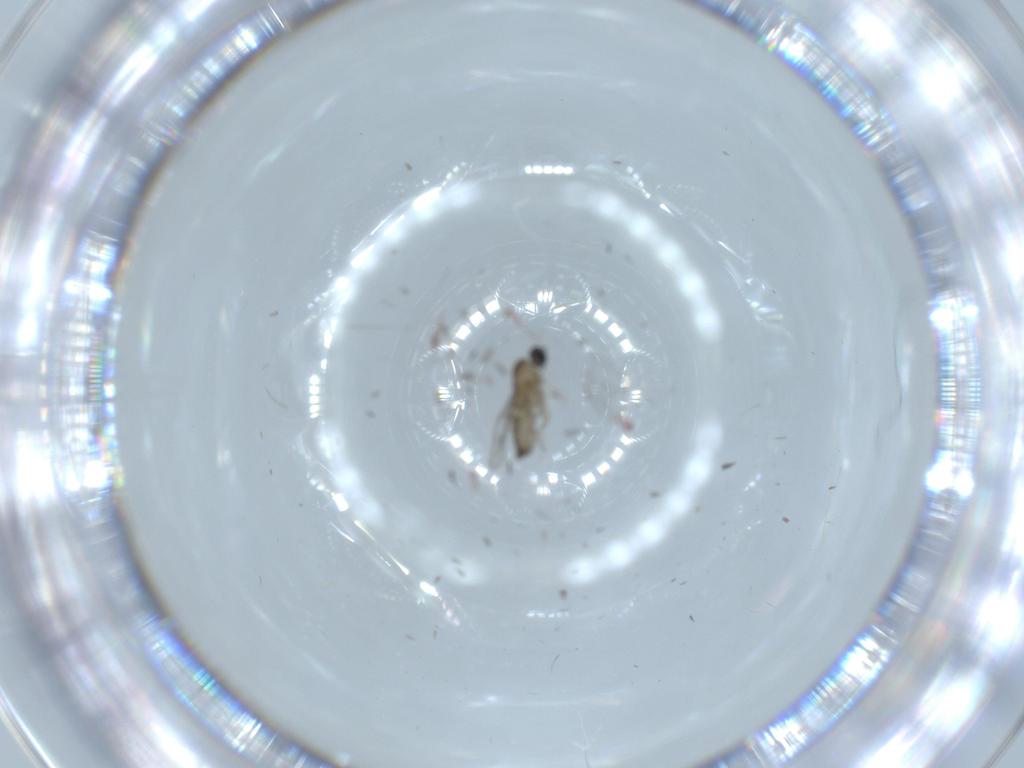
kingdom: Animalia
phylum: Arthropoda
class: Insecta
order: Diptera
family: Cecidomyiidae
